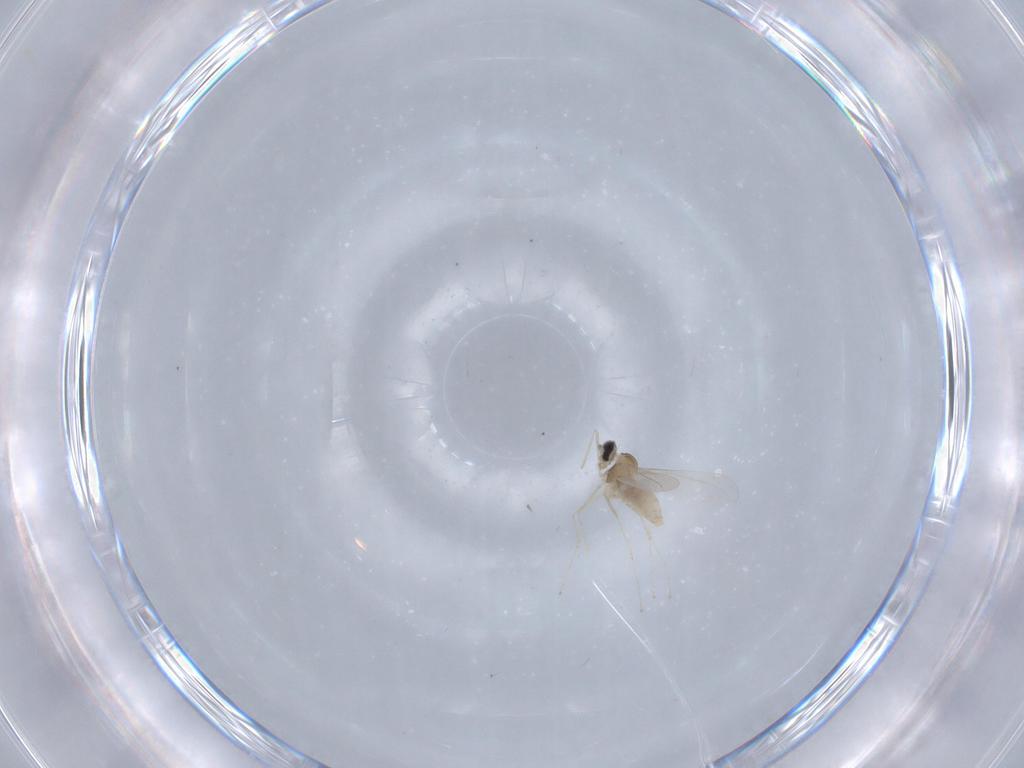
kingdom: Animalia
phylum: Arthropoda
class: Insecta
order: Diptera
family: Cecidomyiidae
